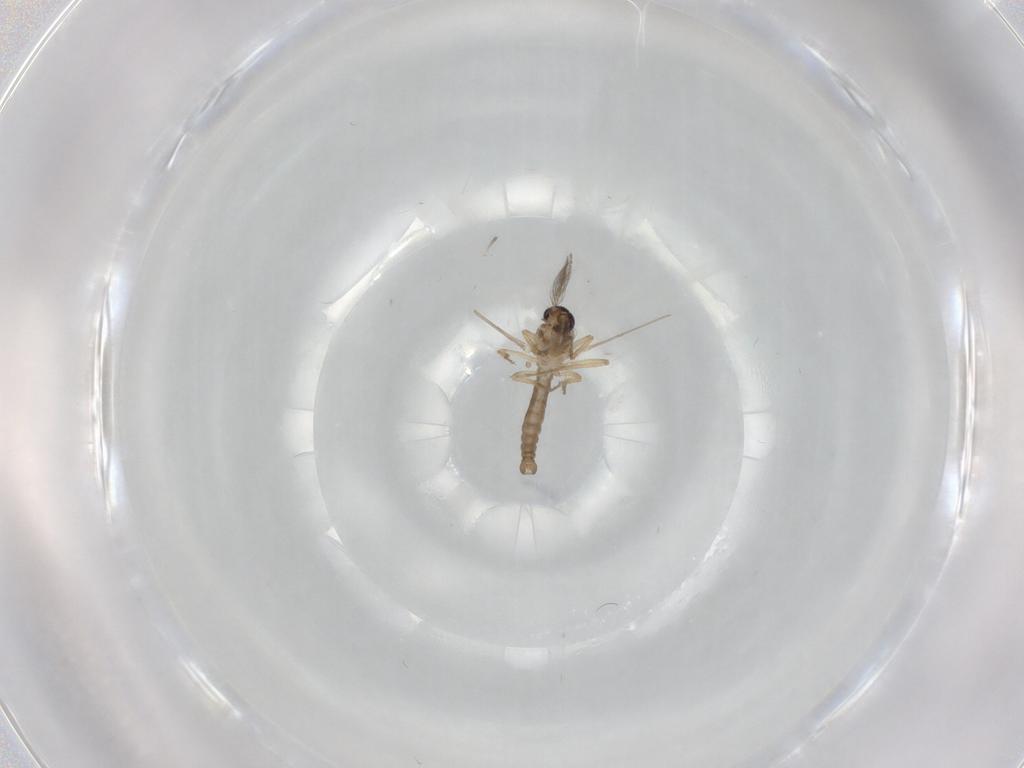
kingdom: Animalia
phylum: Arthropoda
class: Insecta
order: Diptera
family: Ceratopogonidae
